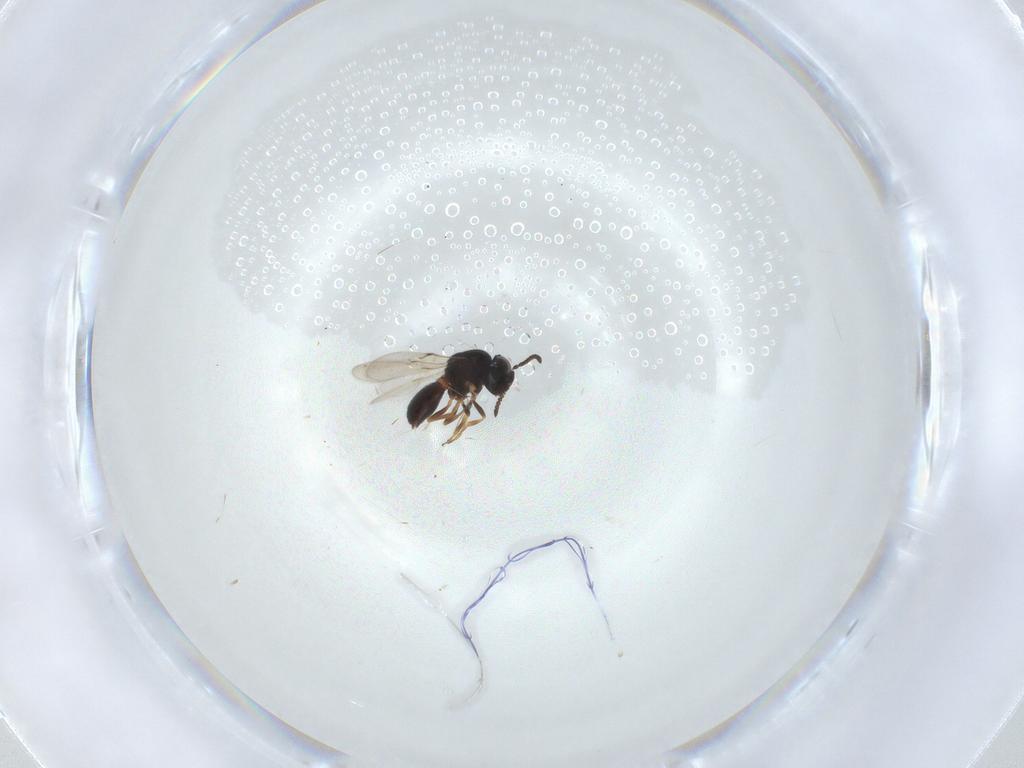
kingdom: Animalia
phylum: Arthropoda
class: Insecta
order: Hymenoptera
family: Scelionidae
